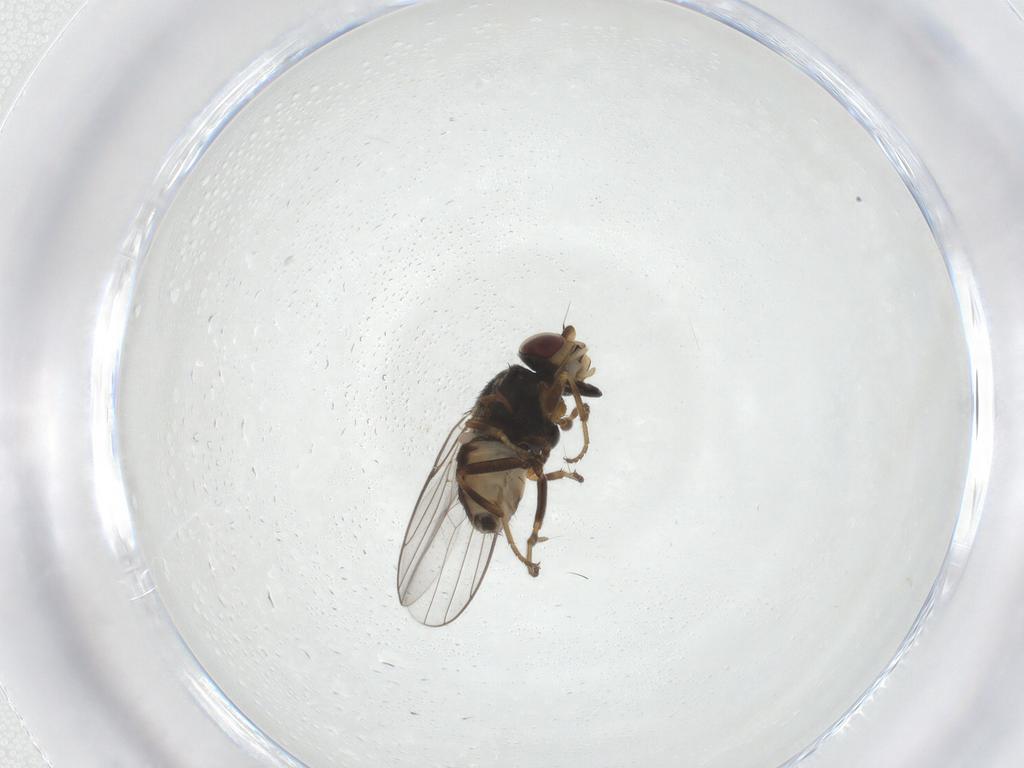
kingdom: Animalia
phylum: Arthropoda
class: Insecta
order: Diptera
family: Chloropidae
